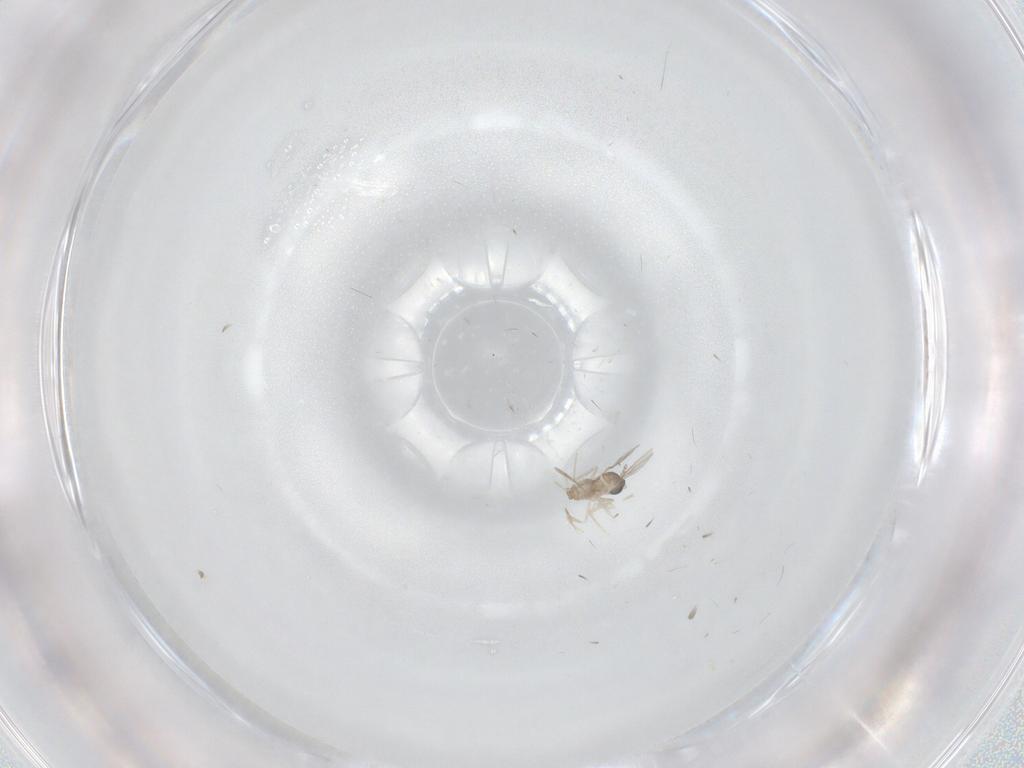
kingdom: Animalia
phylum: Arthropoda
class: Insecta
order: Diptera
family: Cecidomyiidae
